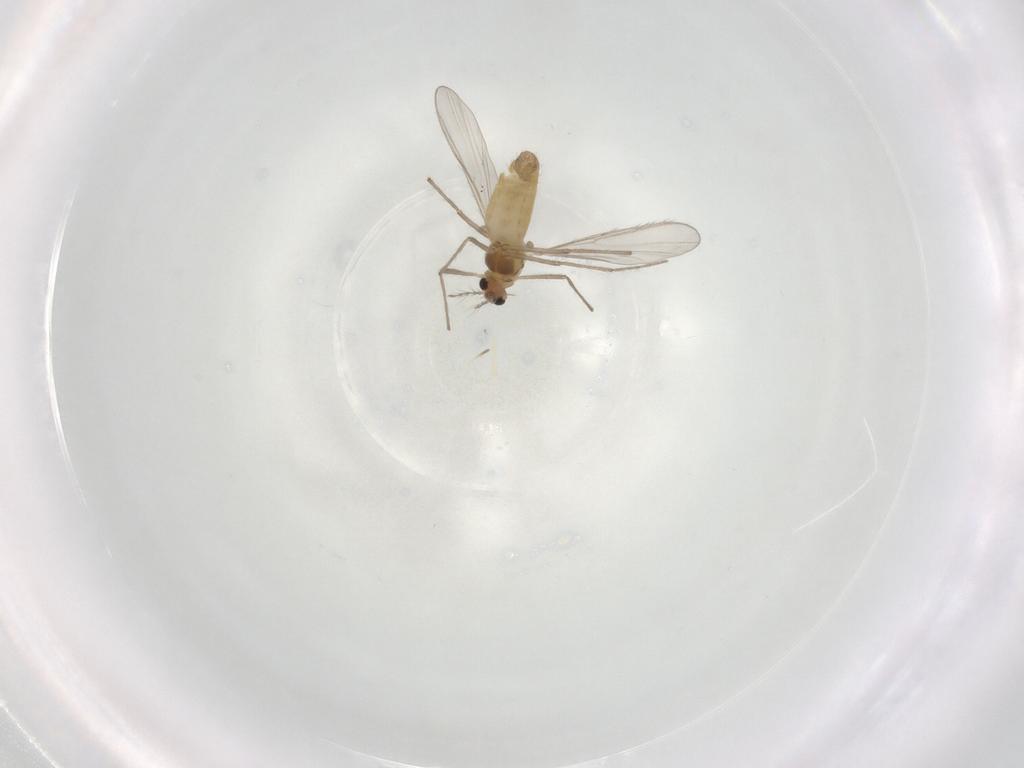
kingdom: Animalia
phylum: Arthropoda
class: Insecta
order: Diptera
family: Chironomidae
